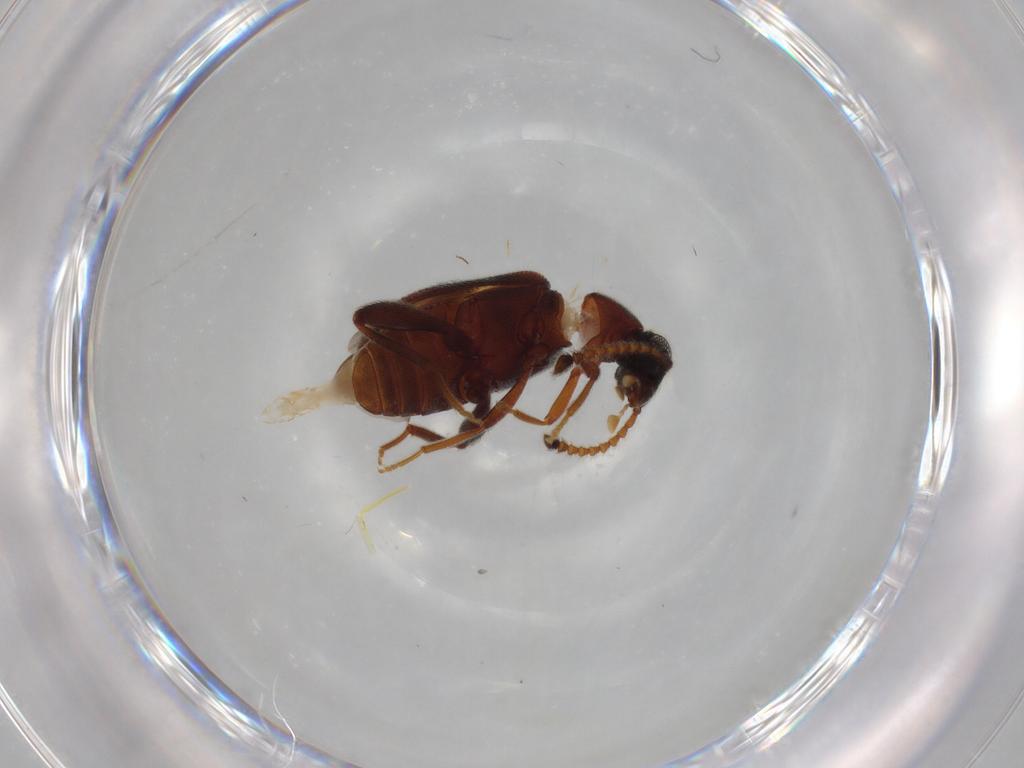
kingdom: Animalia
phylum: Arthropoda
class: Insecta
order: Coleoptera
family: Aderidae
